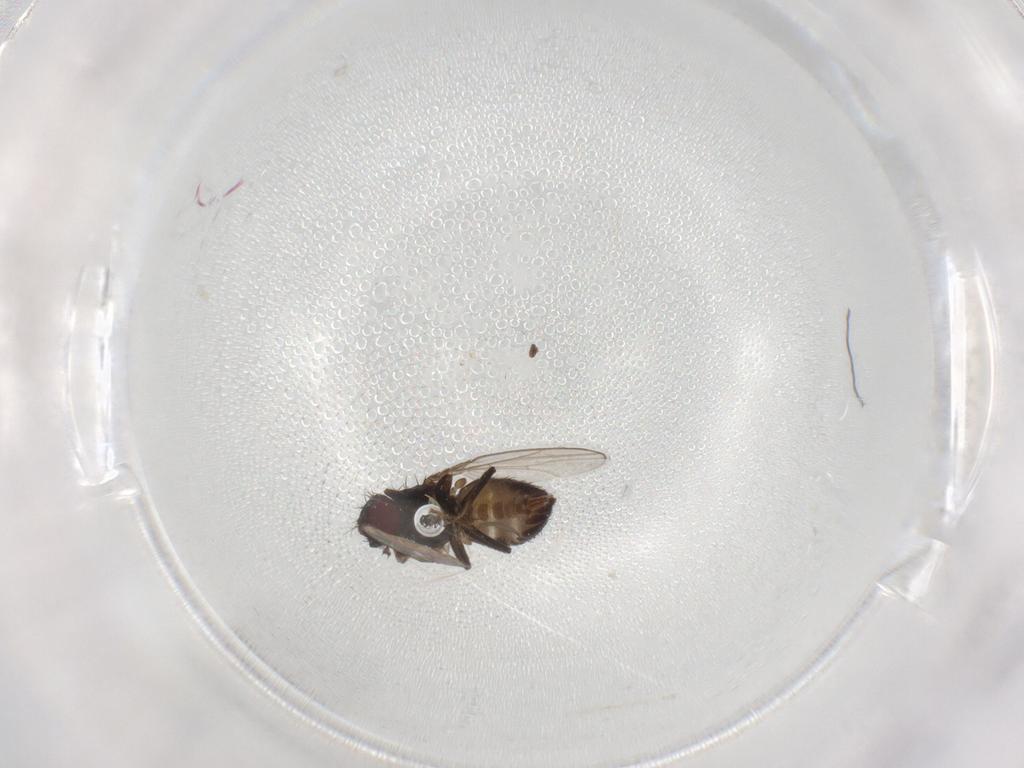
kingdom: Animalia
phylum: Arthropoda
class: Insecta
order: Diptera
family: Drosophilidae
